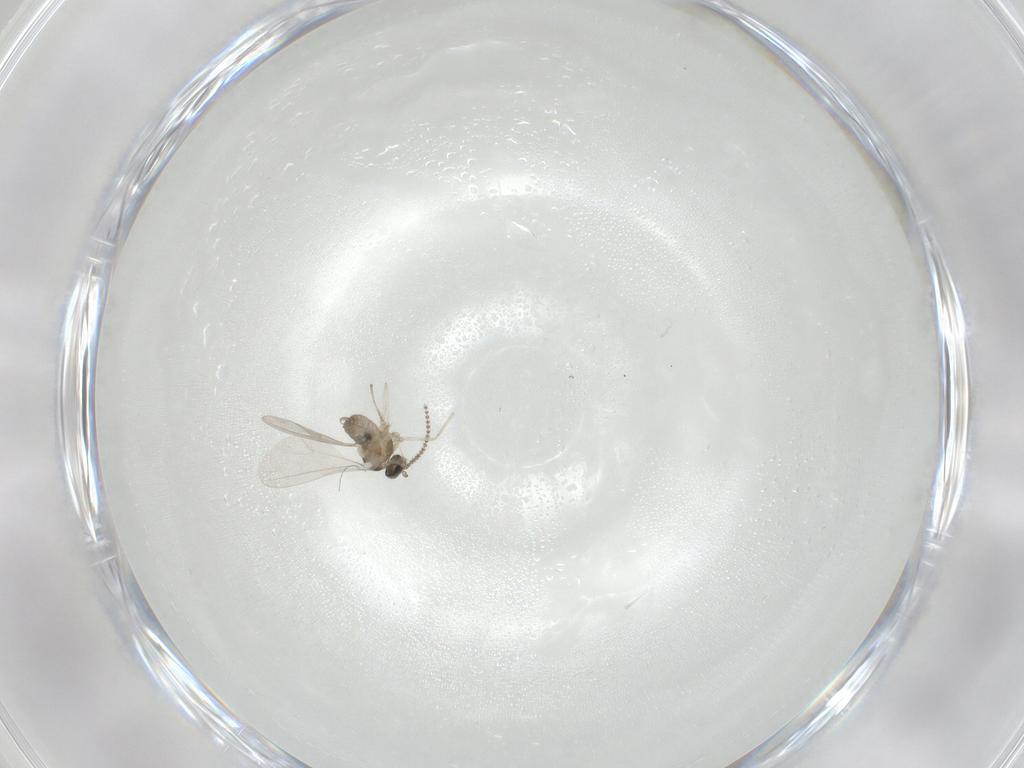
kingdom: Animalia
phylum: Arthropoda
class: Insecta
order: Diptera
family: Cecidomyiidae
